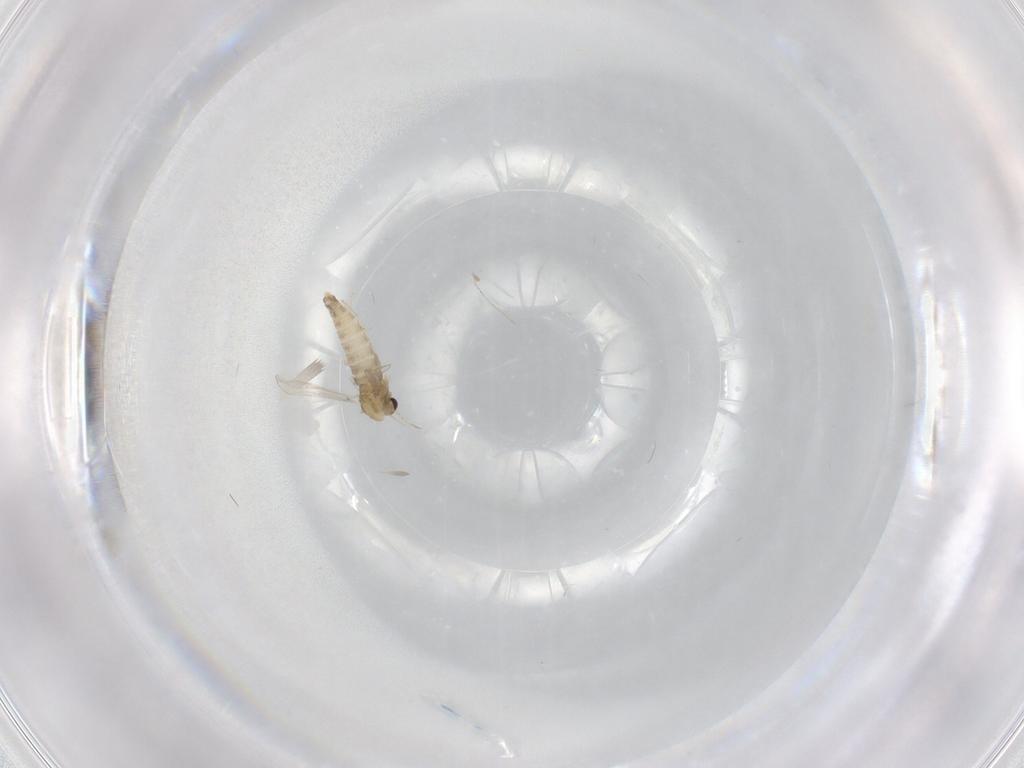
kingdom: Animalia
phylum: Arthropoda
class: Insecta
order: Diptera
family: Chironomidae
